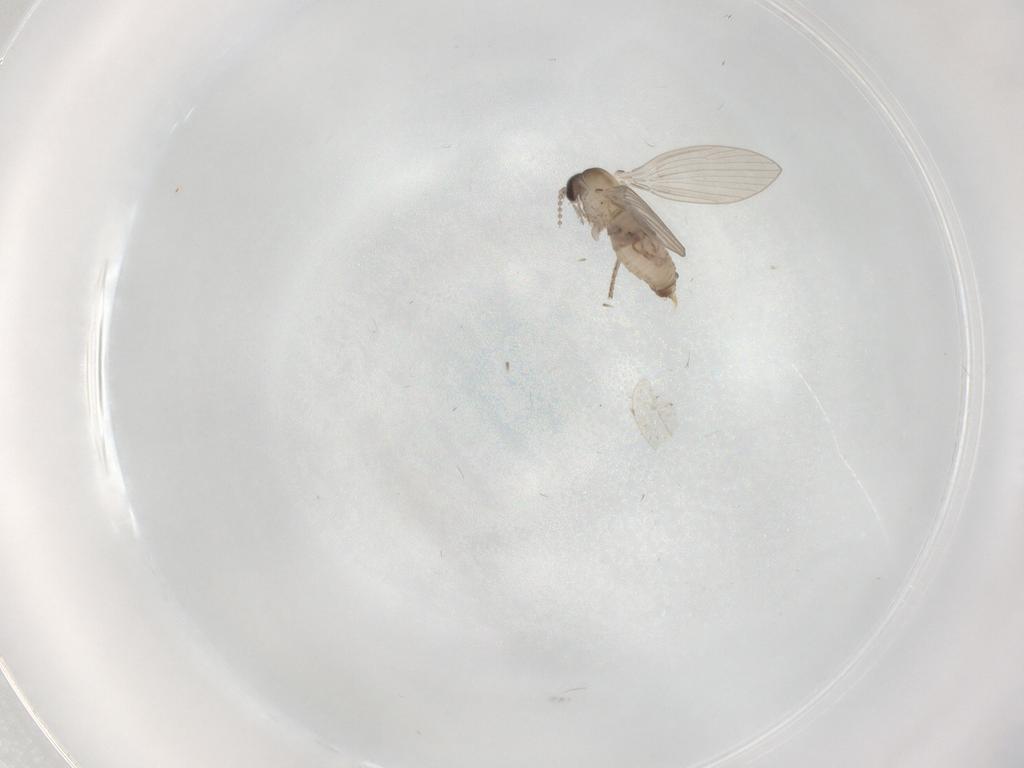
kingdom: Animalia
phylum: Arthropoda
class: Insecta
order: Diptera
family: Psychodidae
